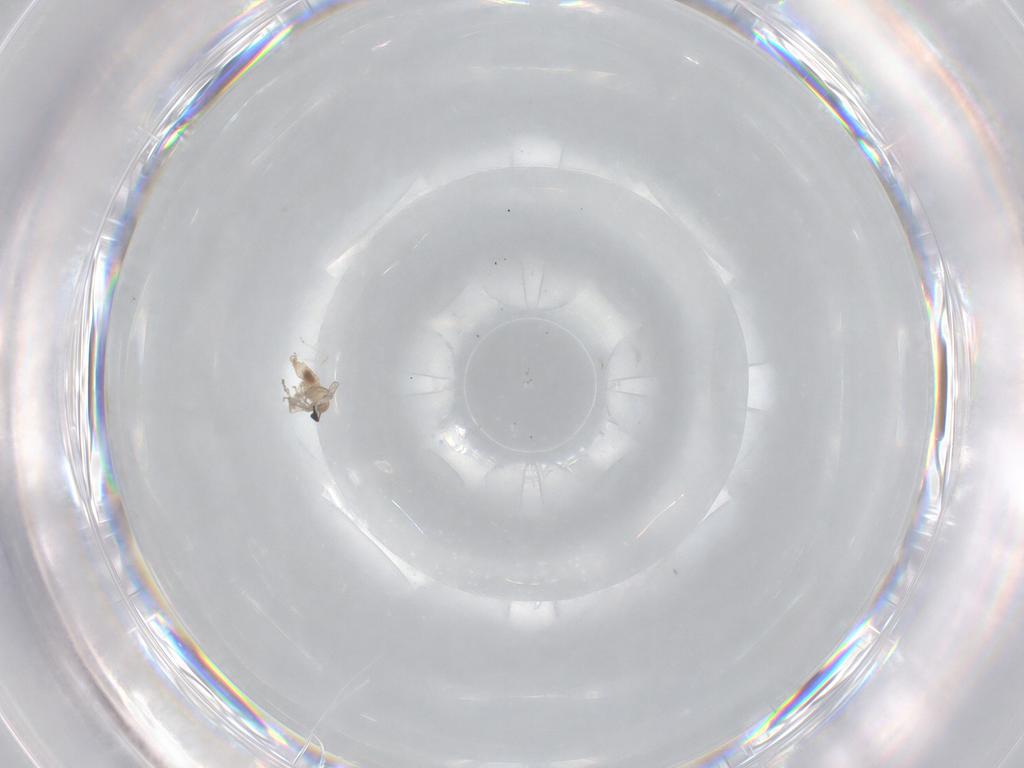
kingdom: Animalia
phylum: Arthropoda
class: Insecta
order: Diptera
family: Cecidomyiidae
